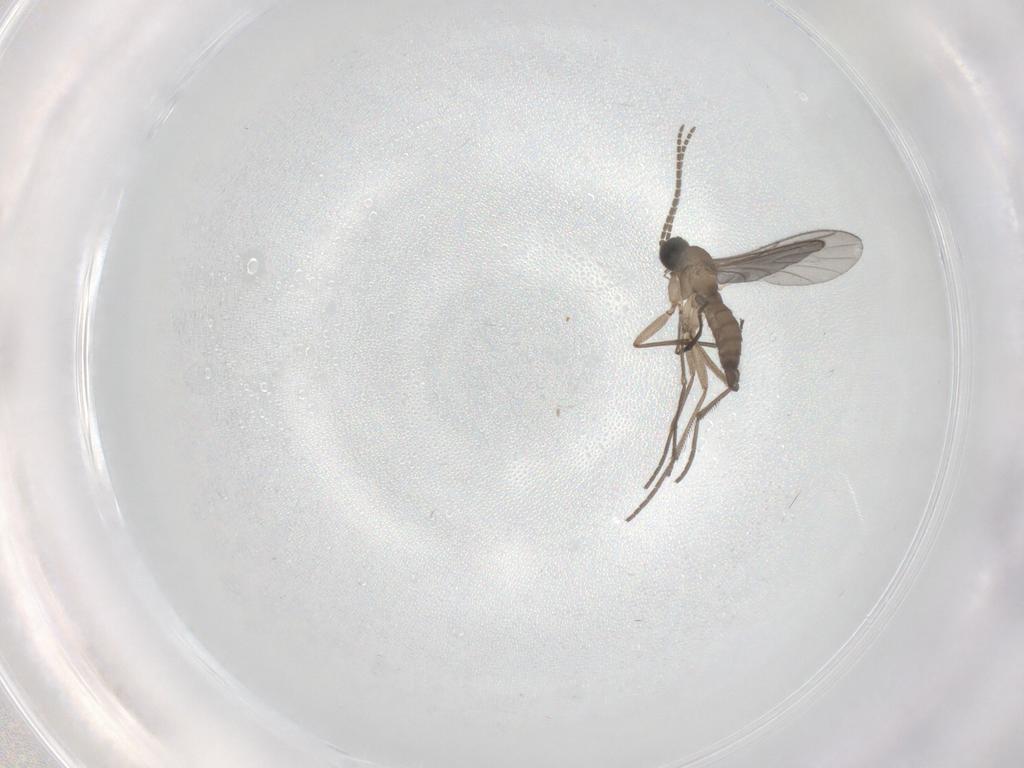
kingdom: Animalia
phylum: Arthropoda
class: Insecta
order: Diptera
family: Sciaridae
